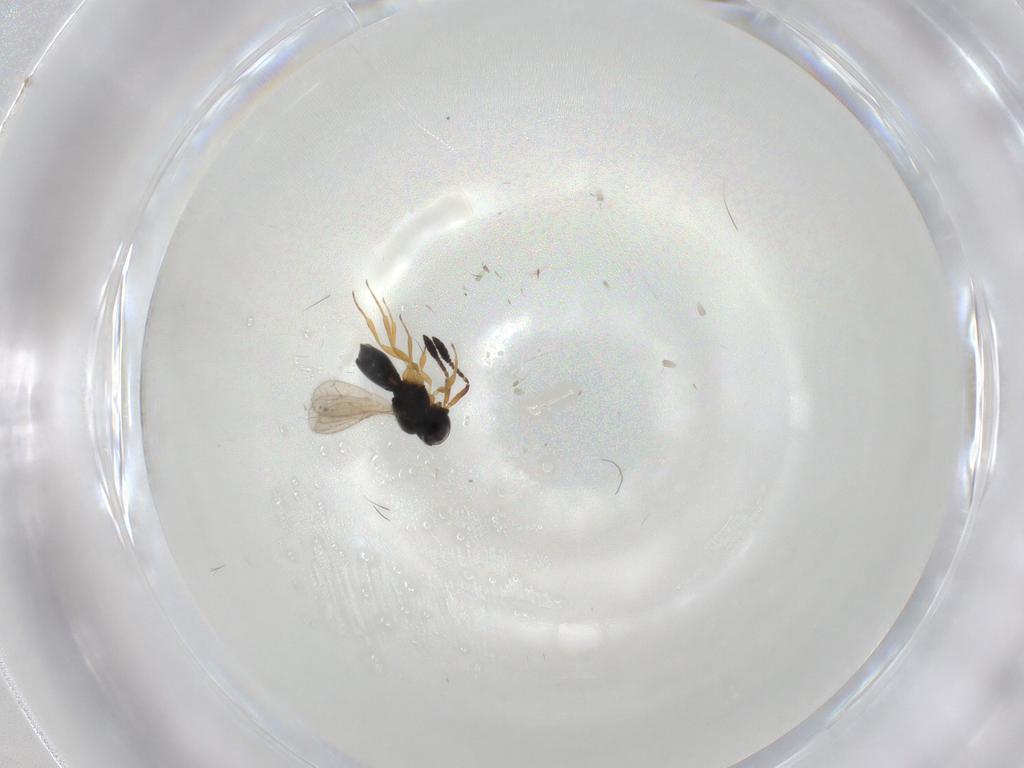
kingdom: Animalia
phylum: Arthropoda
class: Insecta
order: Hymenoptera
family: Scelionidae
